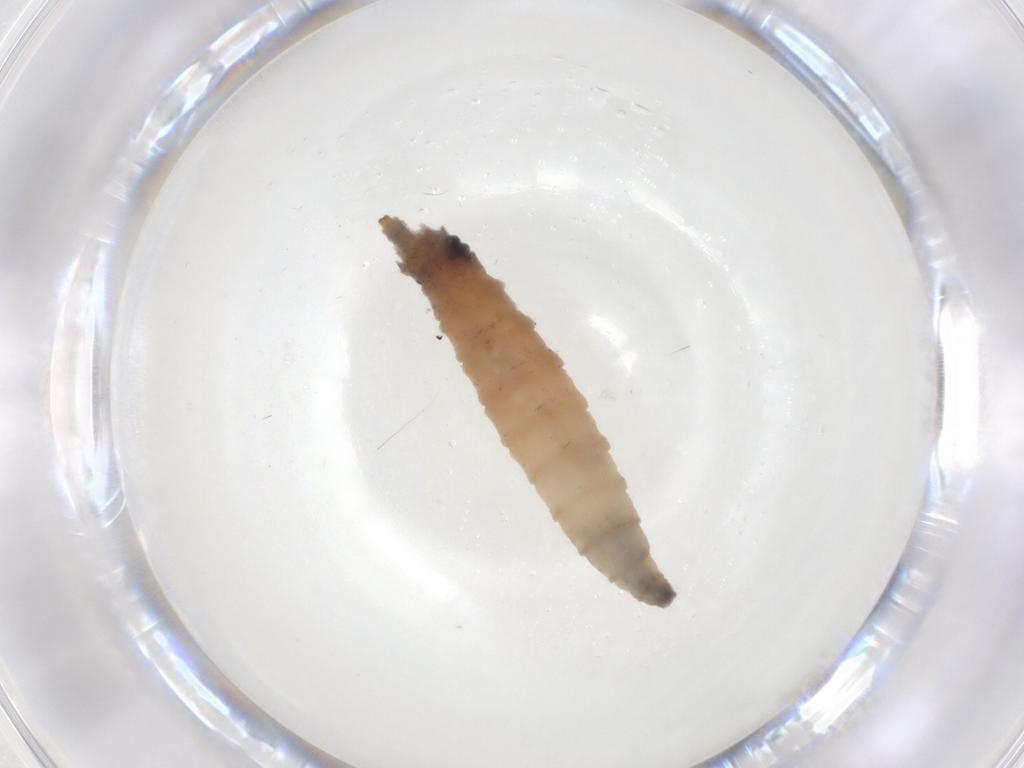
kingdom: Animalia
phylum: Arthropoda
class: Insecta
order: Diptera
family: Drosophilidae
